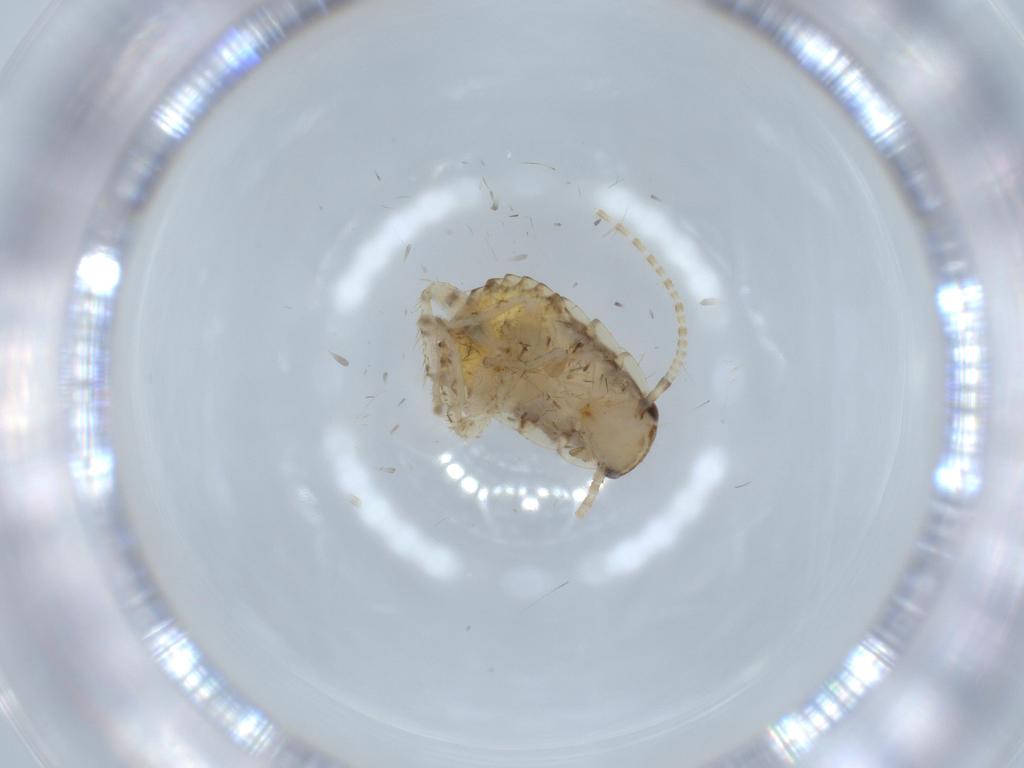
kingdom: Animalia
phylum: Arthropoda
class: Insecta
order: Blattodea
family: Ectobiidae
